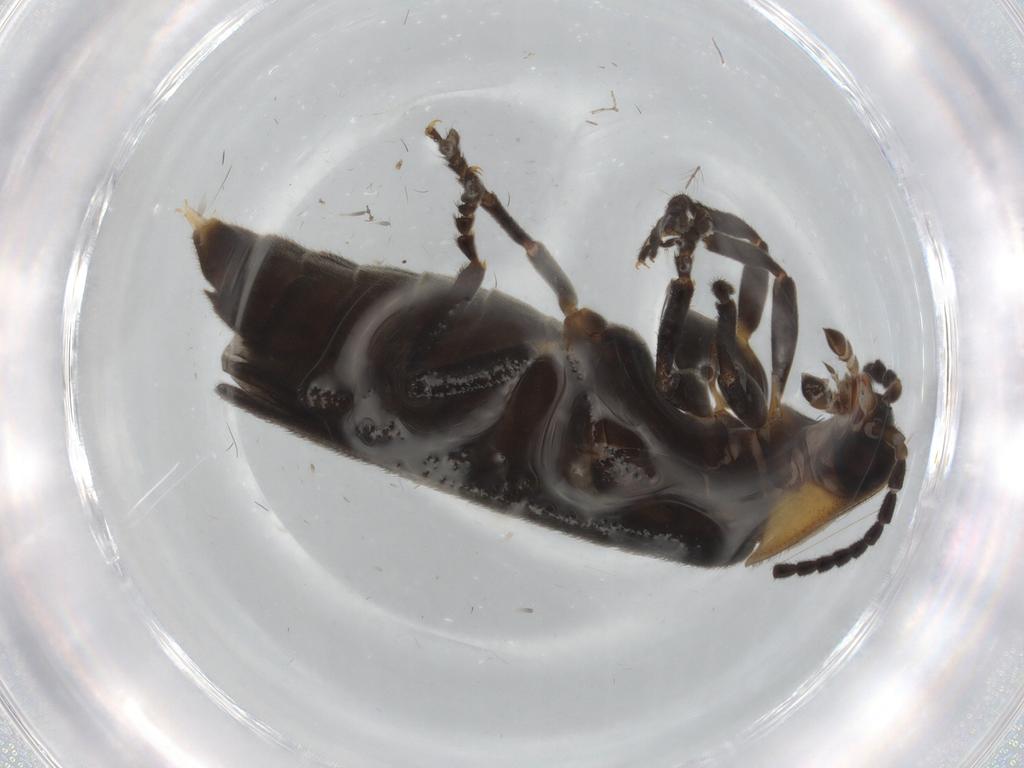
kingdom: Animalia
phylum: Arthropoda
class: Insecta
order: Diptera
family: Cecidomyiidae
